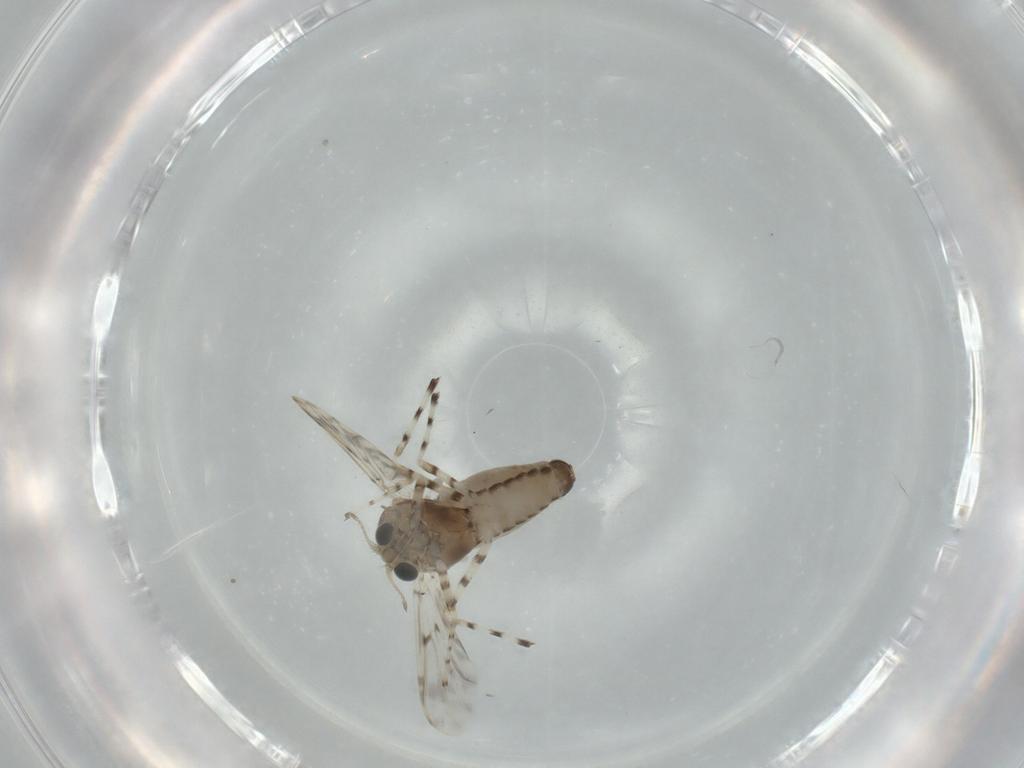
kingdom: Animalia
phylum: Arthropoda
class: Insecta
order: Diptera
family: Chironomidae
